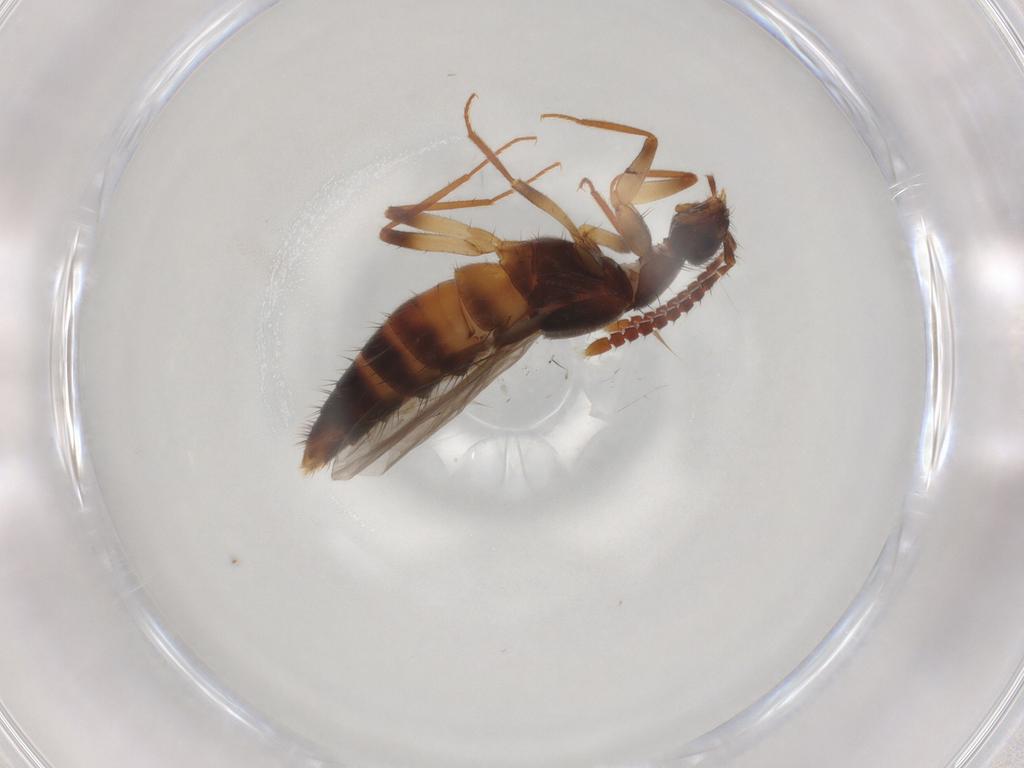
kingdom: Animalia
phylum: Arthropoda
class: Insecta
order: Coleoptera
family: Staphylinidae
